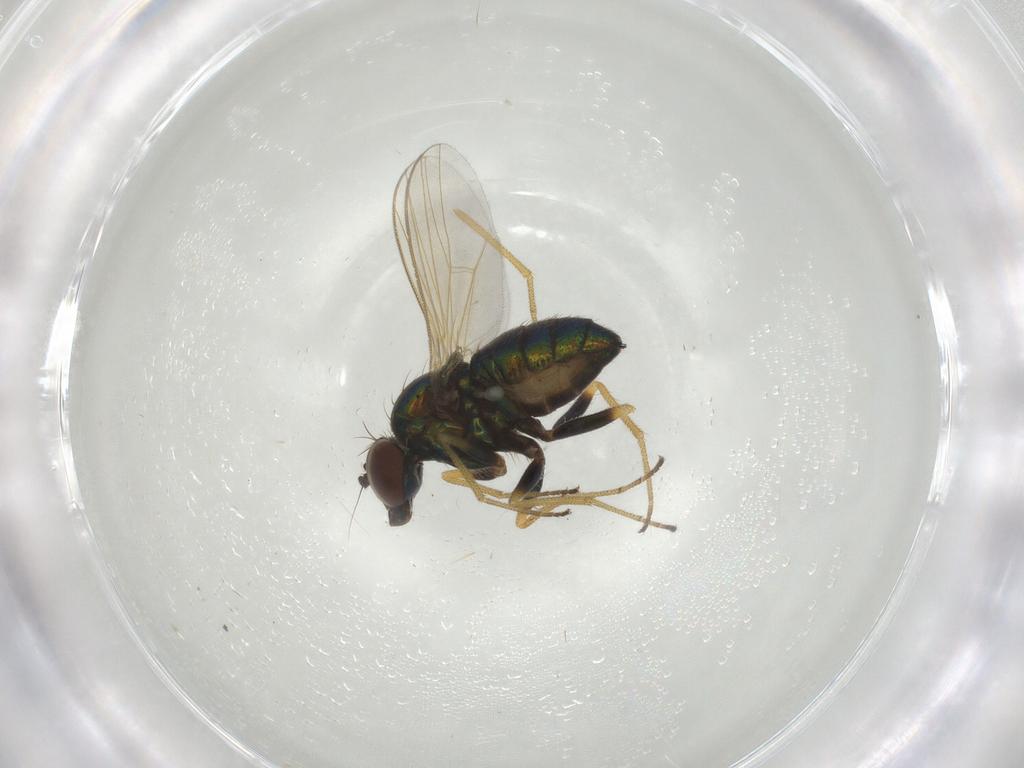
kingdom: Animalia
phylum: Arthropoda
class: Insecta
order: Diptera
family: Dolichopodidae
